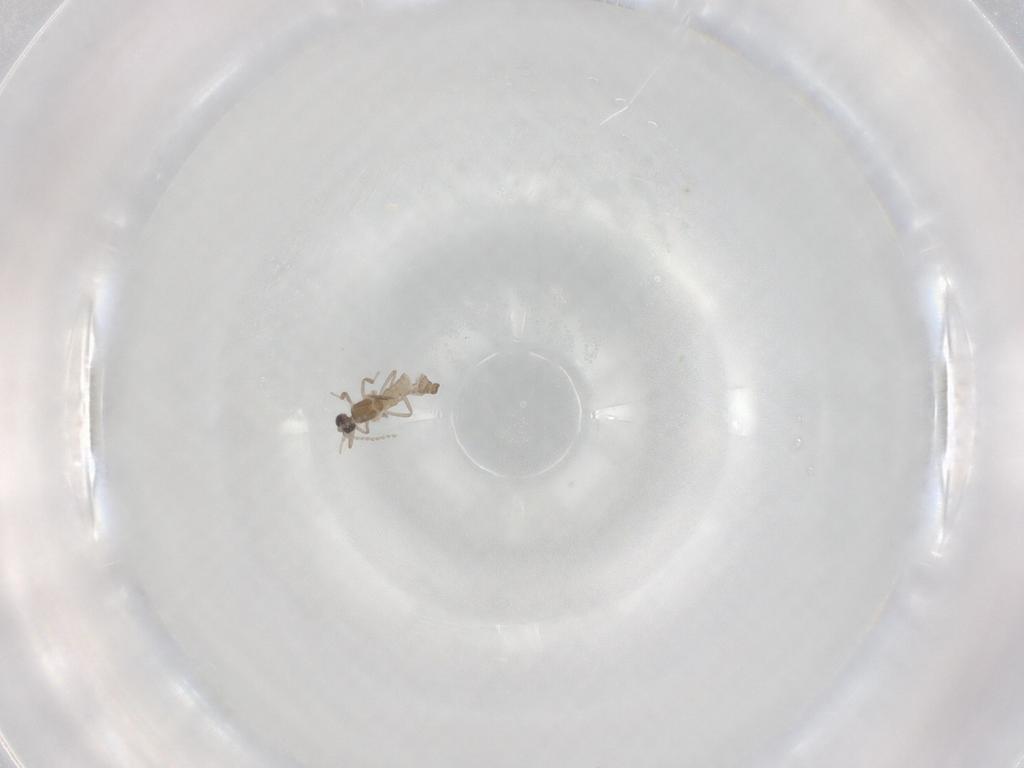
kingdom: Animalia
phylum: Arthropoda
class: Insecta
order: Diptera
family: Cecidomyiidae
